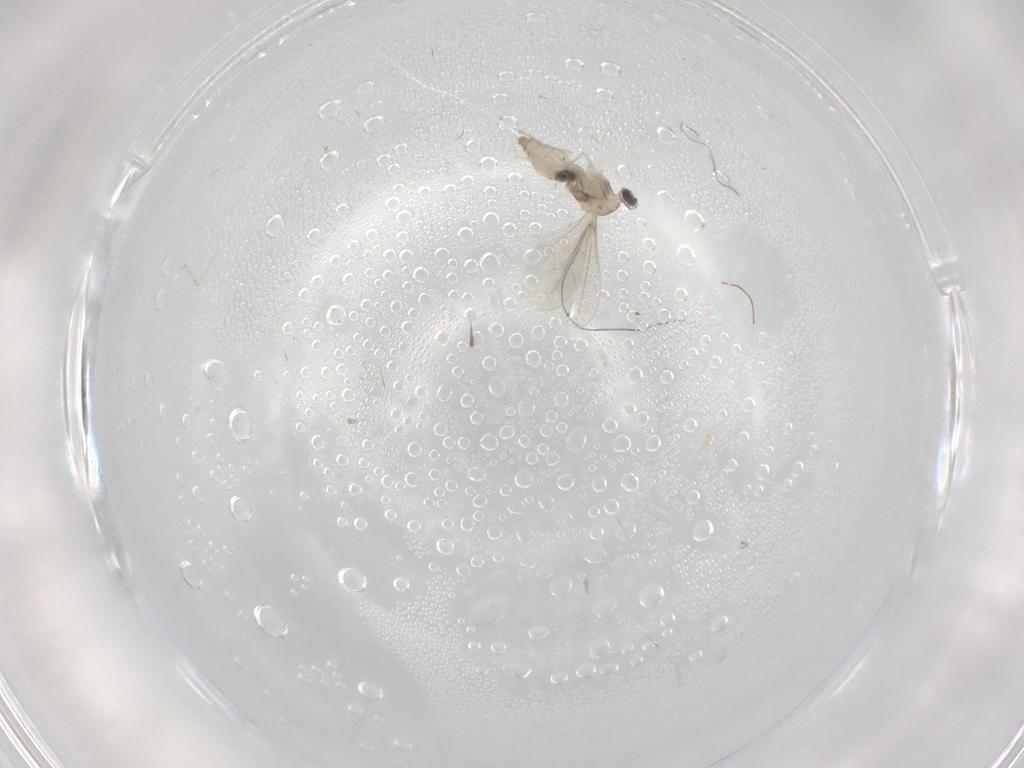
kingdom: Animalia
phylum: Arthropoda
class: Insecta
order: Diptera
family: Cecidomyiidae
